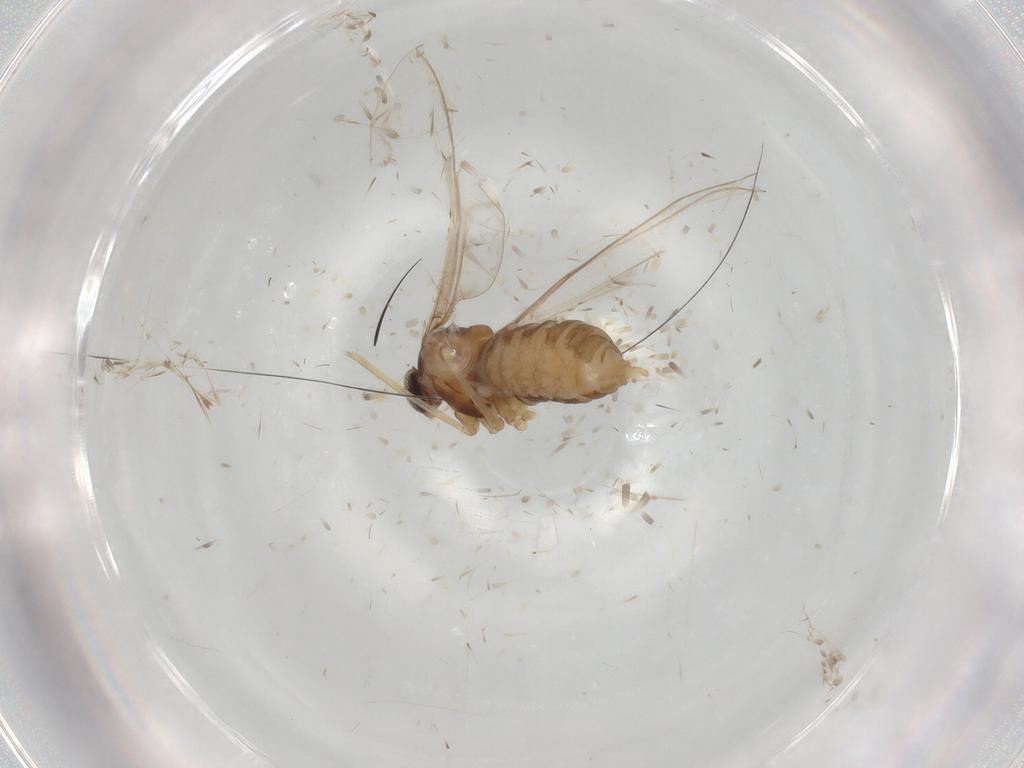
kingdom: Animalia
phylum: Arthropoda
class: Insecta
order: Diptera
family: Cecidomyiidae
